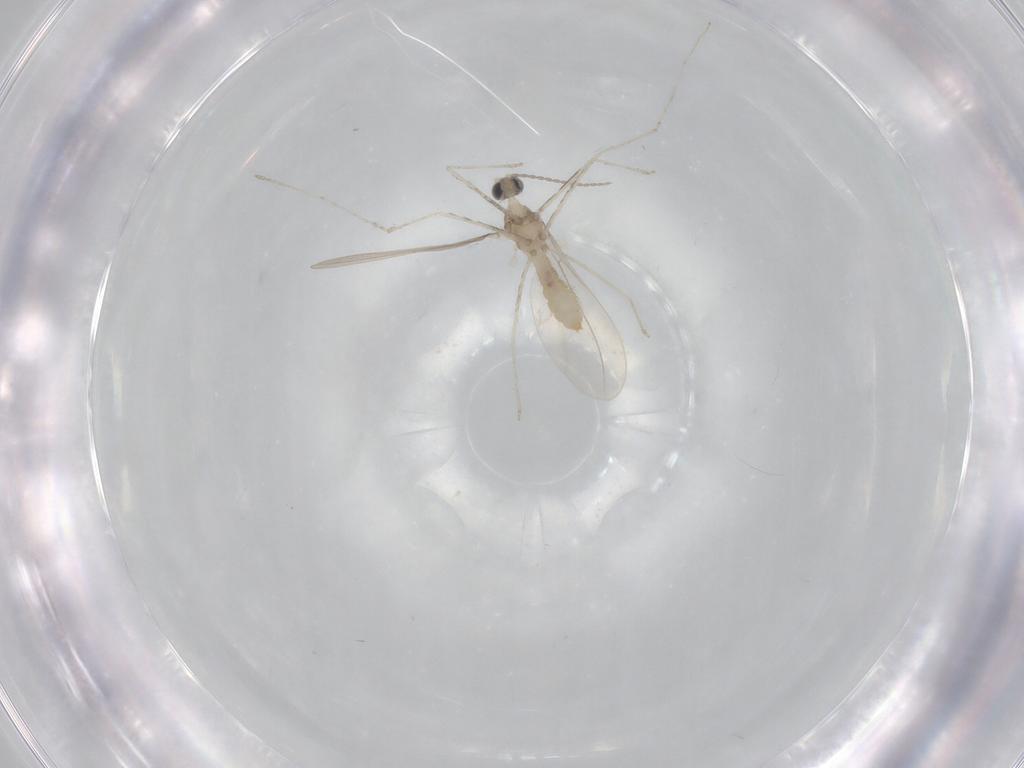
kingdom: Animalia
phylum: Arthropoda
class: Insecta
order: Diptera
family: Cecidomyiidae
